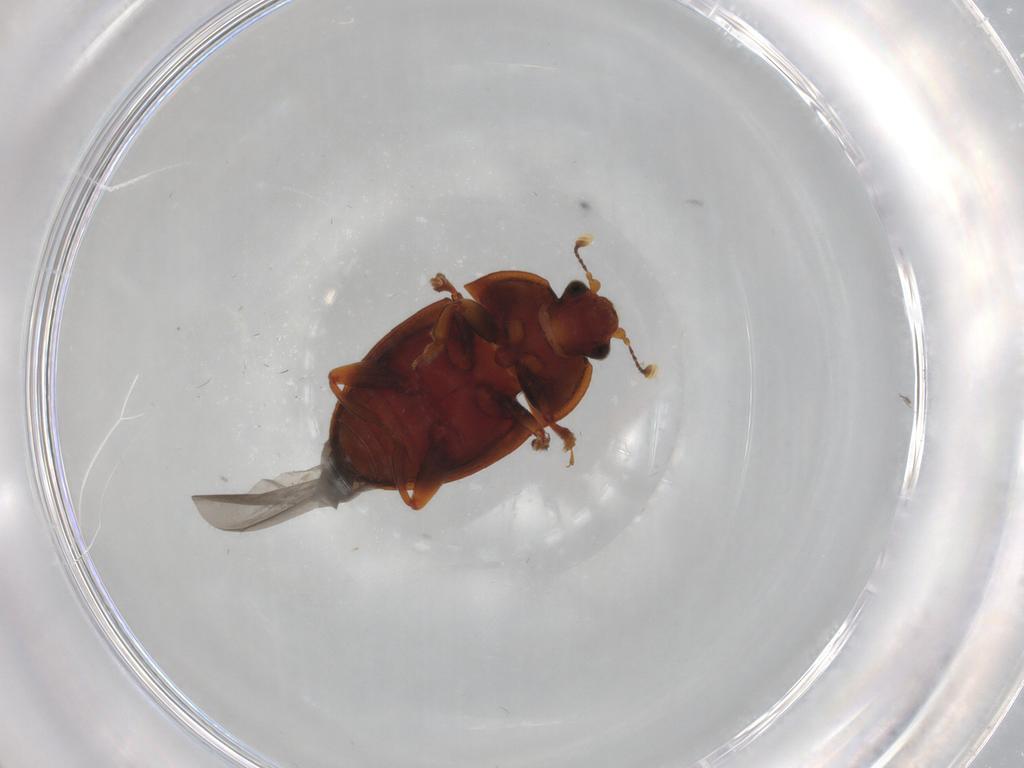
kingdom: Animalia
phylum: Arthropoda
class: Insecta
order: Coleoptera
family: Nitidulidae
